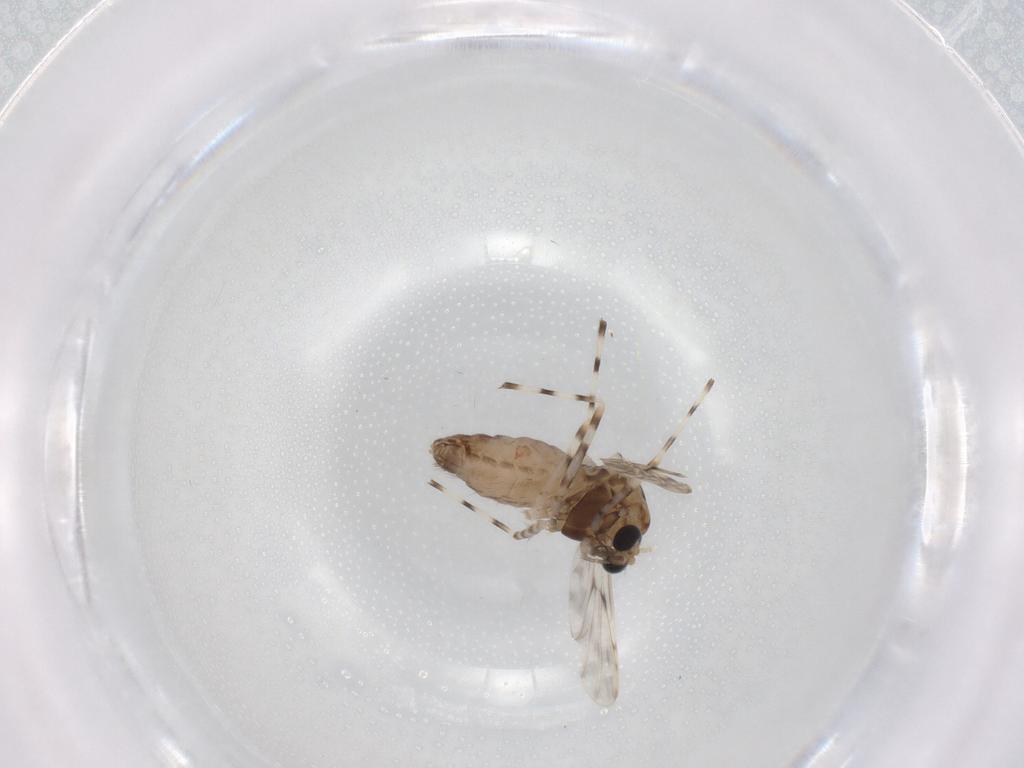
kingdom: Animalia
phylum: Arthropoda
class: Insecta
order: Diptera
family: Chironomidae
